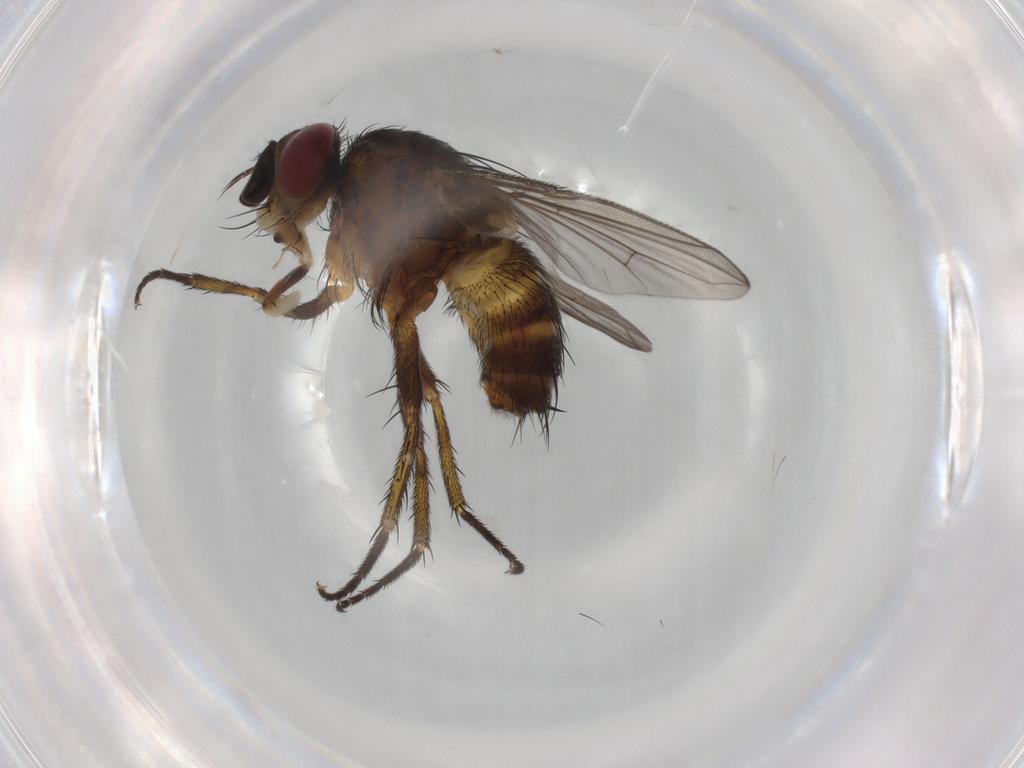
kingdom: Animalia
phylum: Arthropoda
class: Insecta
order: Diptera
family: Tachinidae
